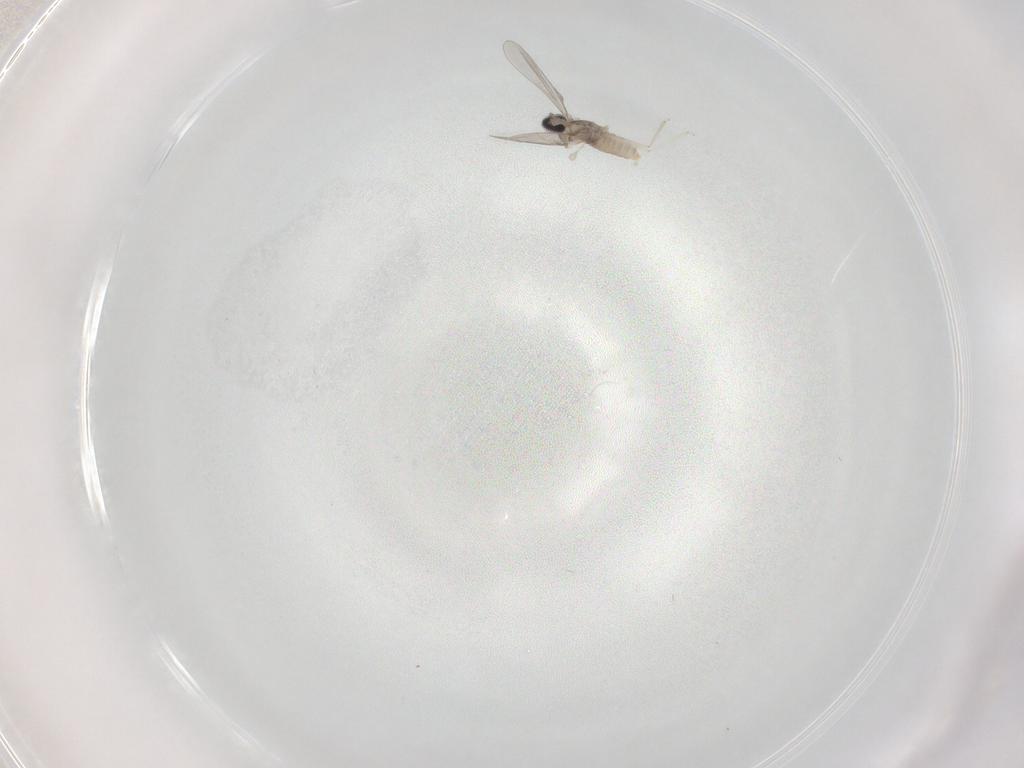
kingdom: Animalia
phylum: Arthropoda
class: Insecta
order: Diptera
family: Cecidomyiidae
